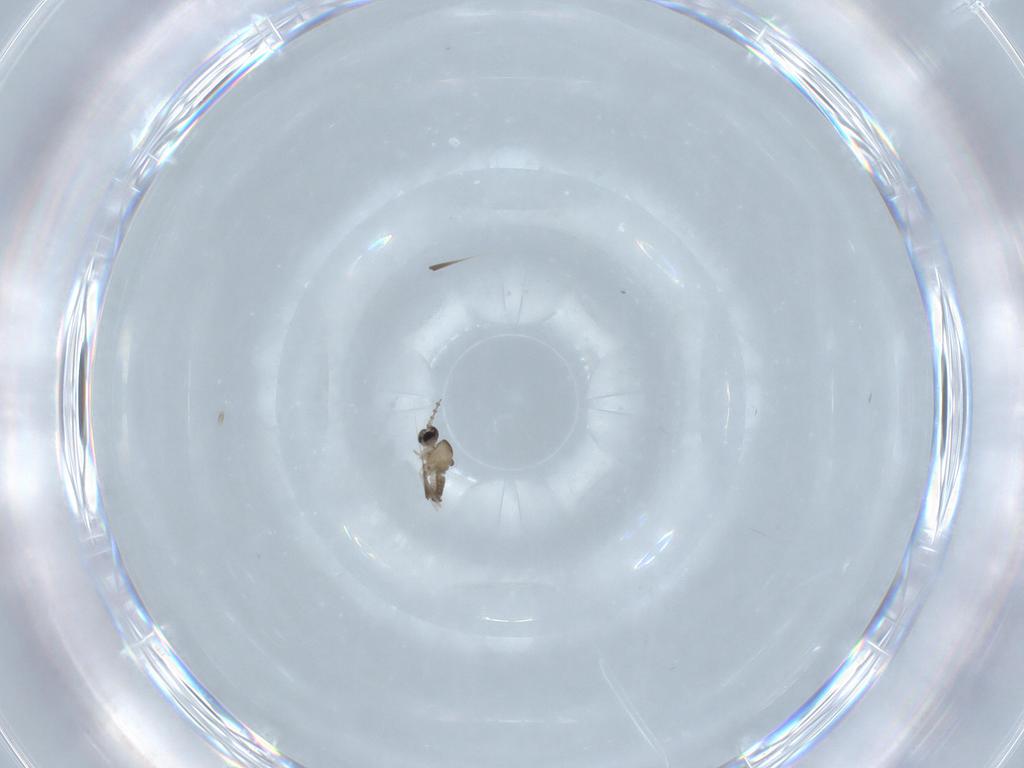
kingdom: Animalia
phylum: Arthropoda
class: Insecta
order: Diptera
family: Cecidomyiidae
